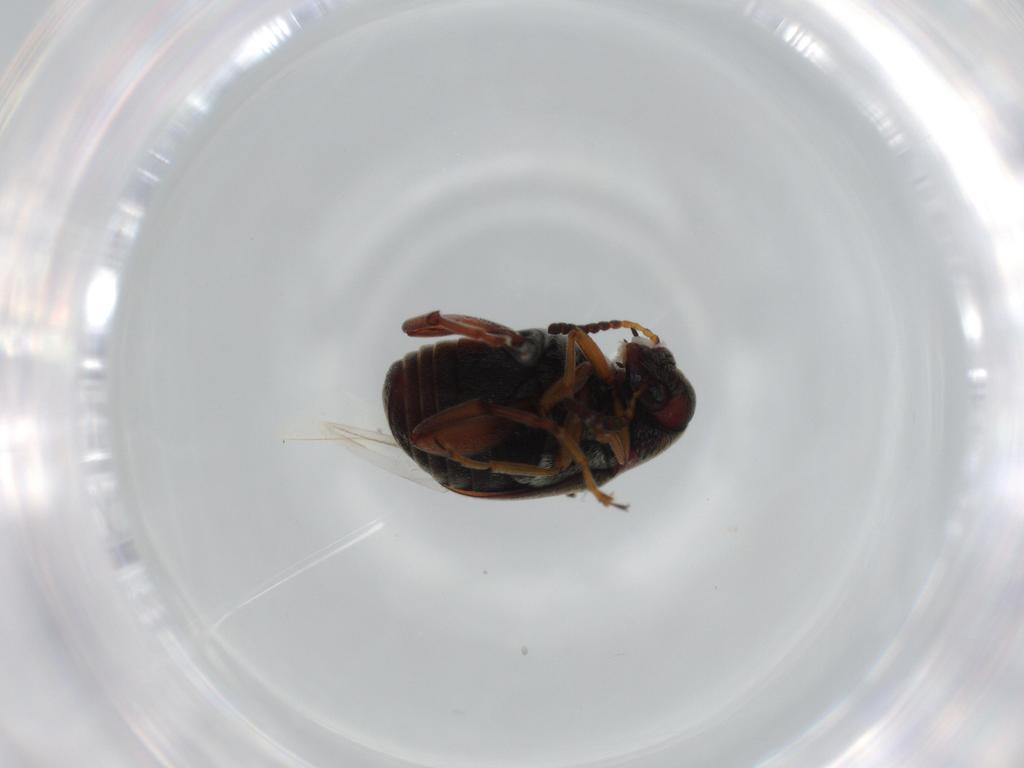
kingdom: Animalia
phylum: Arthropoda
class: Insecta
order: Coleoptera
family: Chrysomelidae
